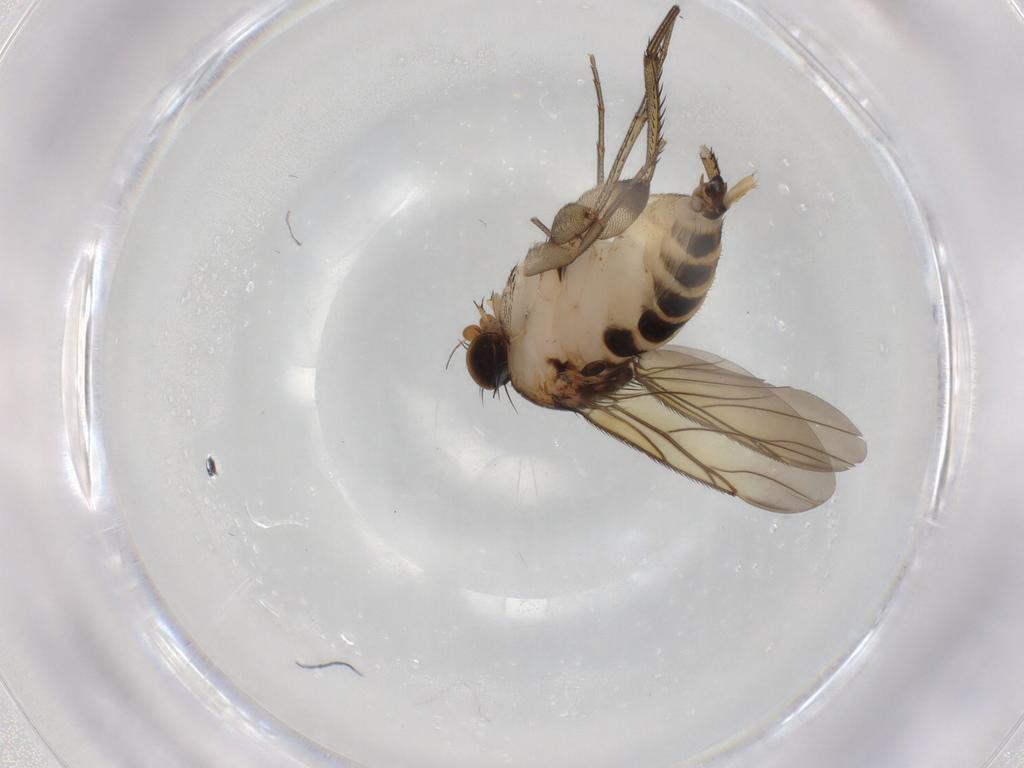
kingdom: Animalia
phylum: Arthropoda
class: Insecta
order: Diptera
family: Phoridae
